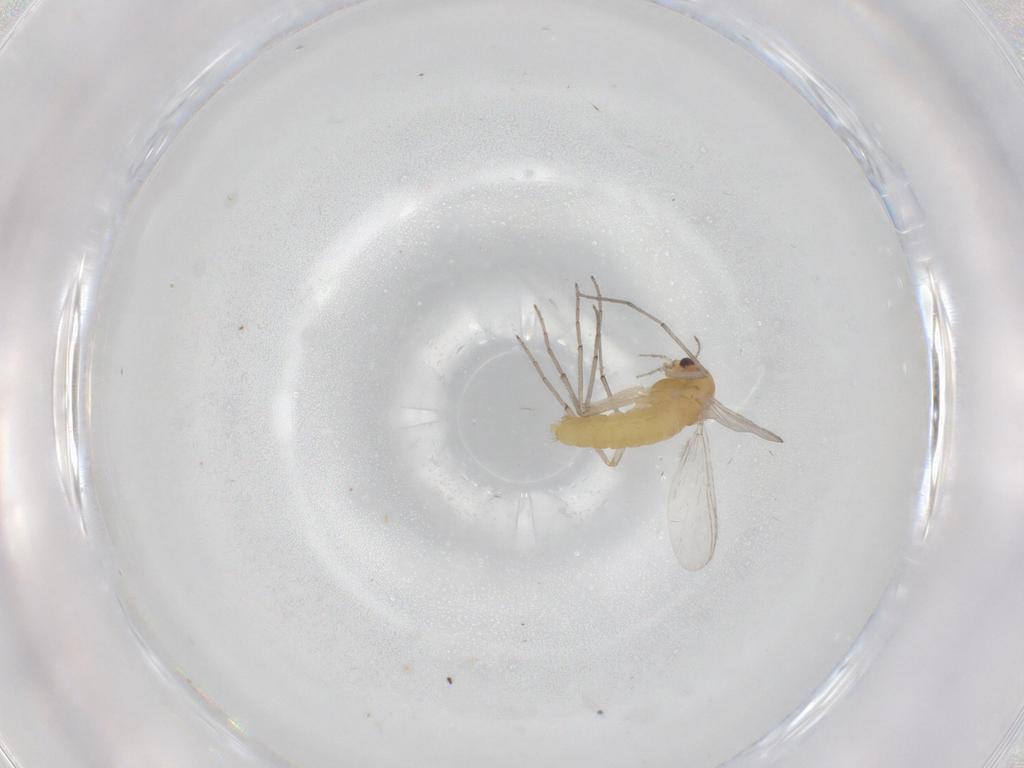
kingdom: Animalia
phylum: Arthropoda
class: Insecta
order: Diptera
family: Chironomidae
